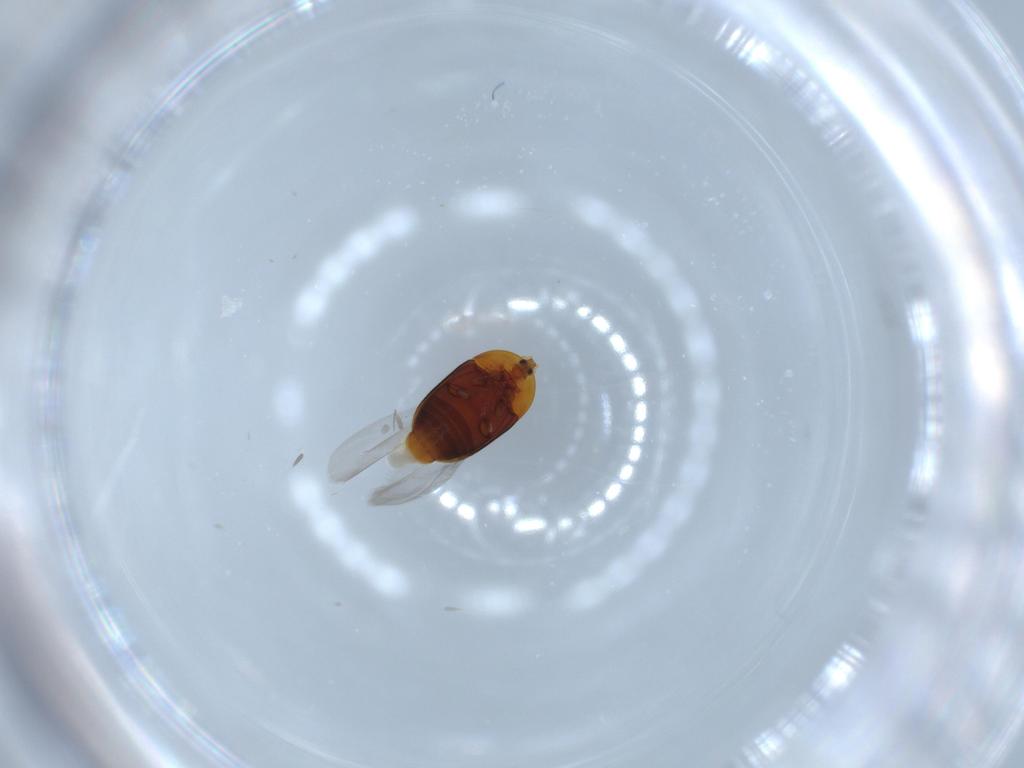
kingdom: Animalia
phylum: Arthropoda
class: Insecta
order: Coleoptera
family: Corylophidae
